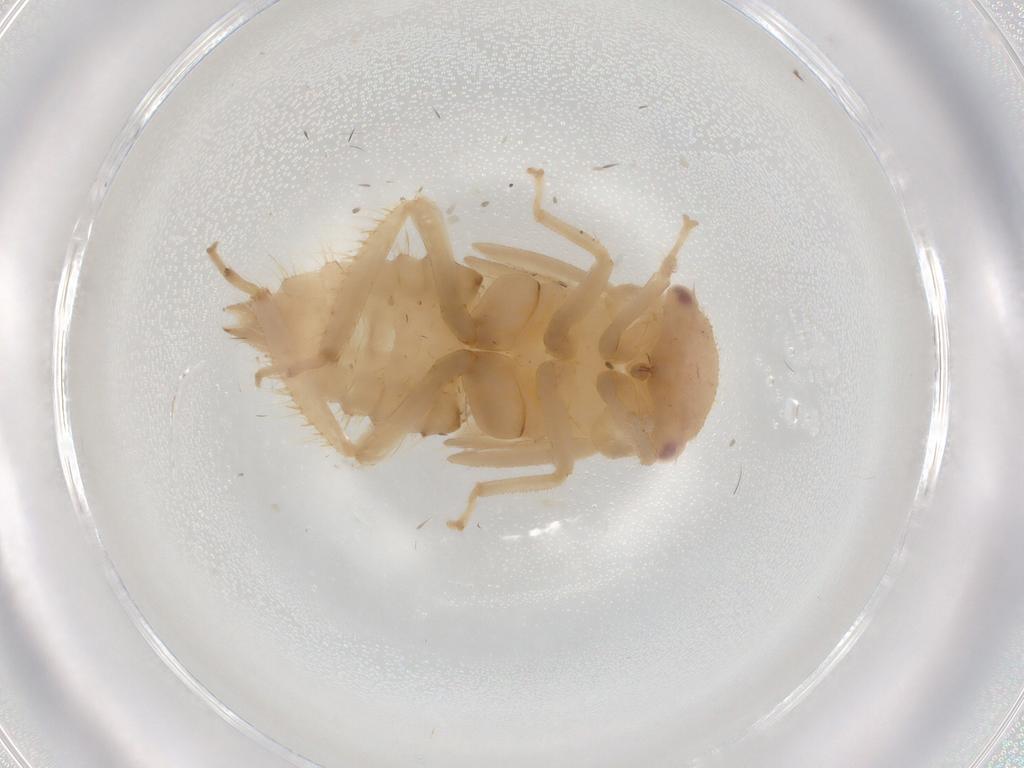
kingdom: Animalia
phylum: Arthropoda
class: Insecta
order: Hemiptera
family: Cicadellidae
